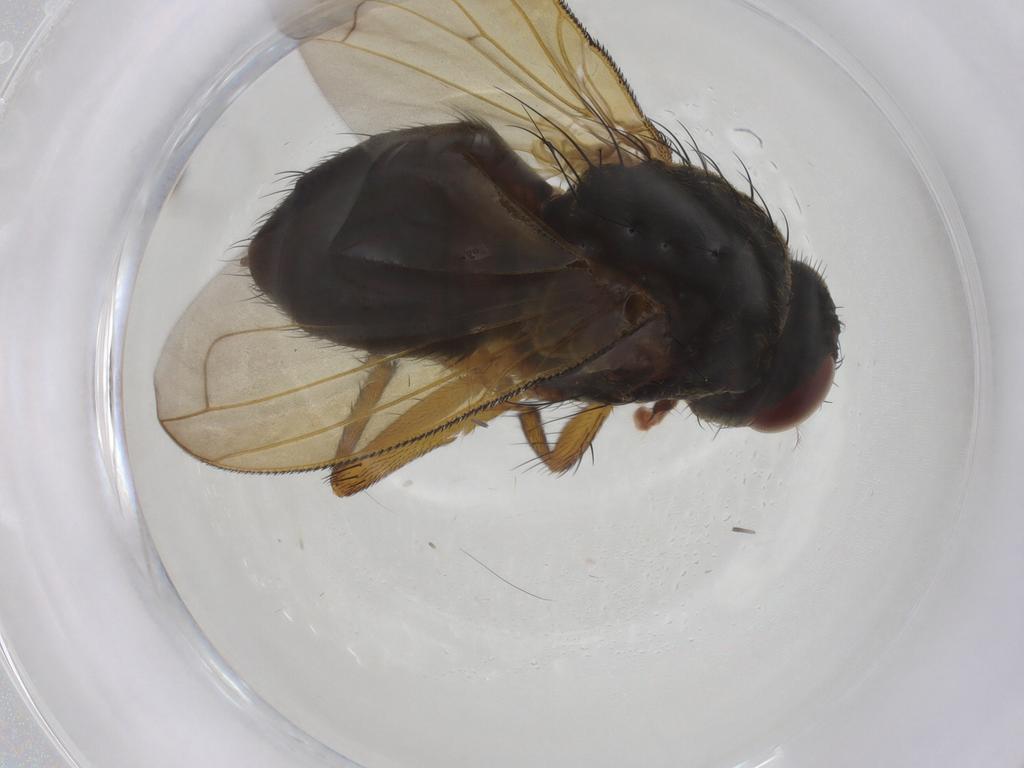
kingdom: Animalia
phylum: Arthropoda
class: Insecta
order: Diptera
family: Polleniidae
